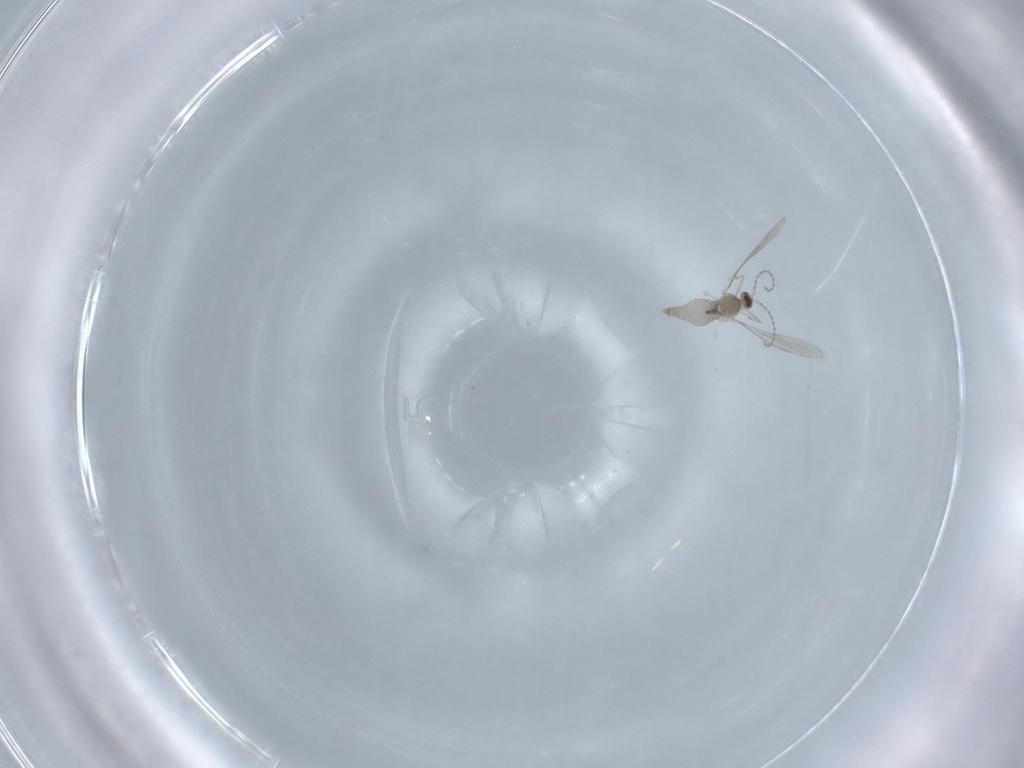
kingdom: Animalia
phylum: Arthropoda
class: Insecta
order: Diptera
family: Cecidomyiidae
